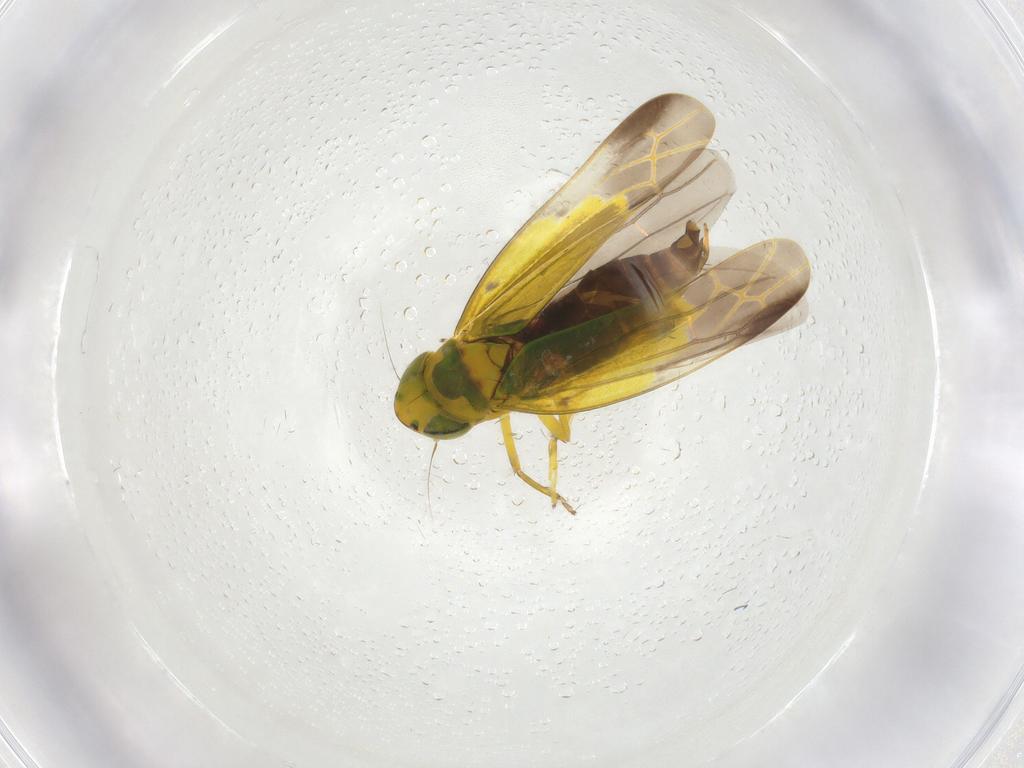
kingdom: Animalia
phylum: Arthropoda
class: Insecta
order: Hemiptera
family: Cicadellidae
